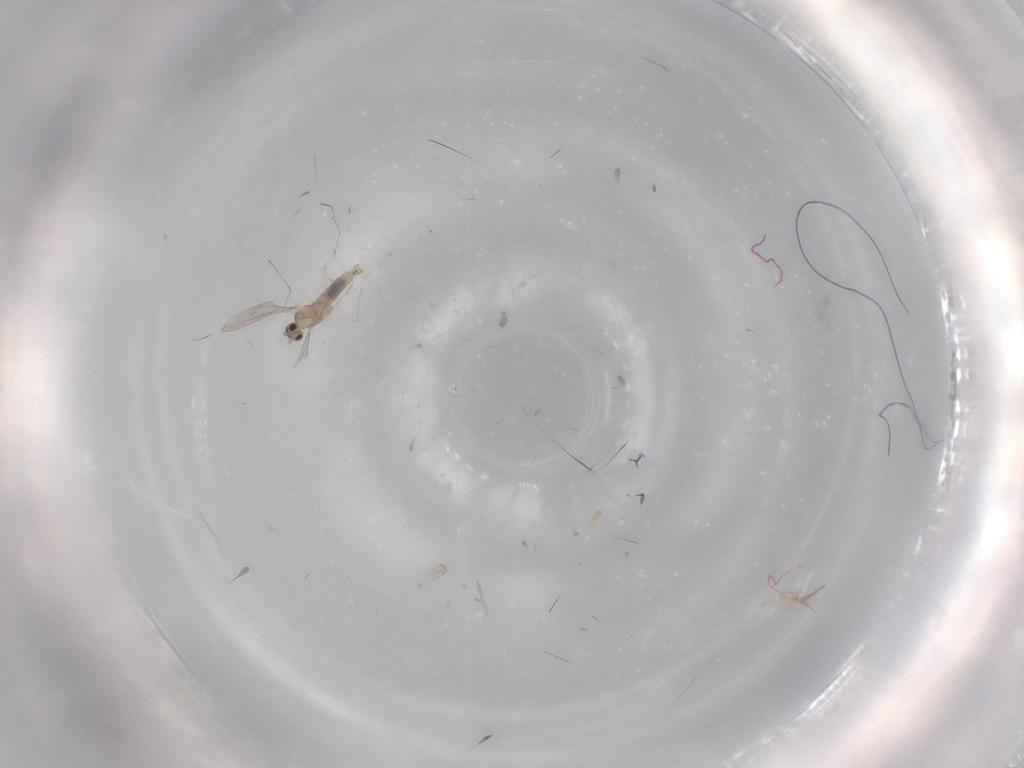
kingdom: Animalia
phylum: Arthropoda
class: Insecta
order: Diptera
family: Cecidomyiidae
